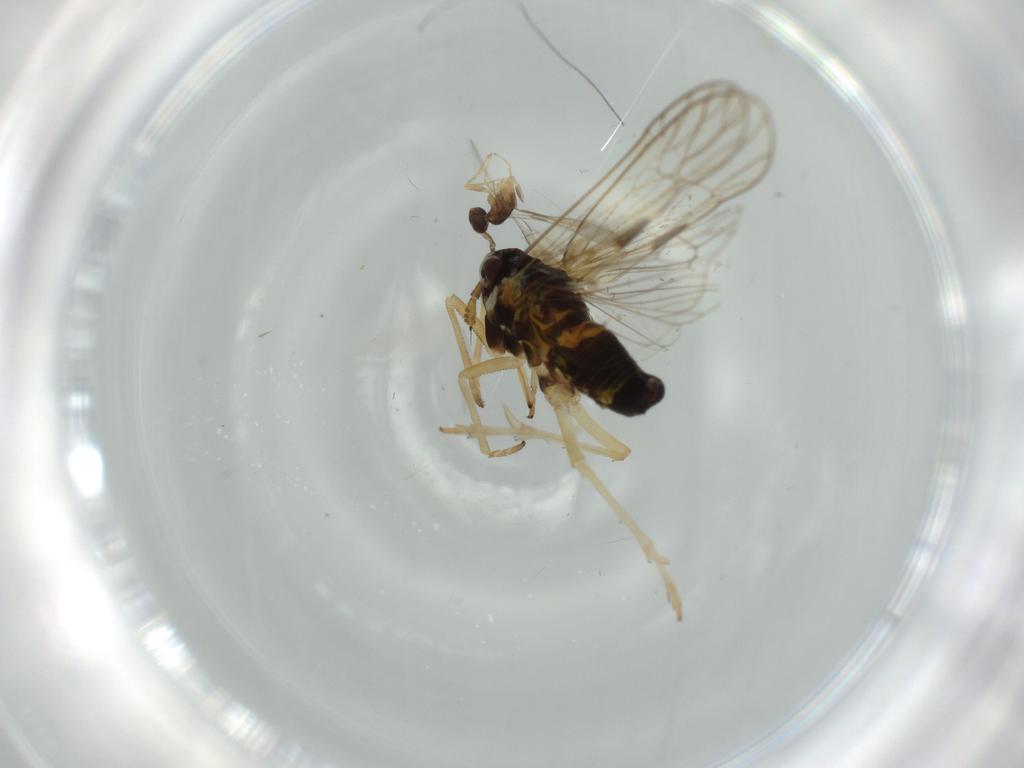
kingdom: Animalia
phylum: Arthropoda
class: Insecta
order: Hymenoptera
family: Mymaridae
